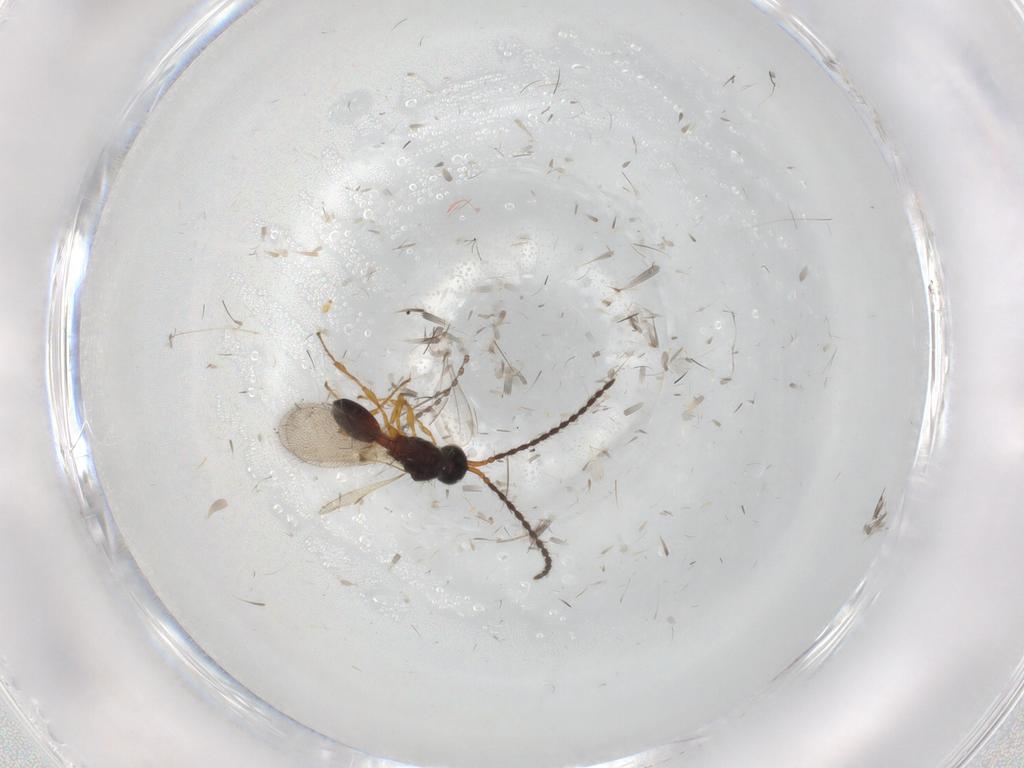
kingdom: Animalia
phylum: Arthropoda
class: Insecta
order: Hymenoptera
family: Diapriidae
